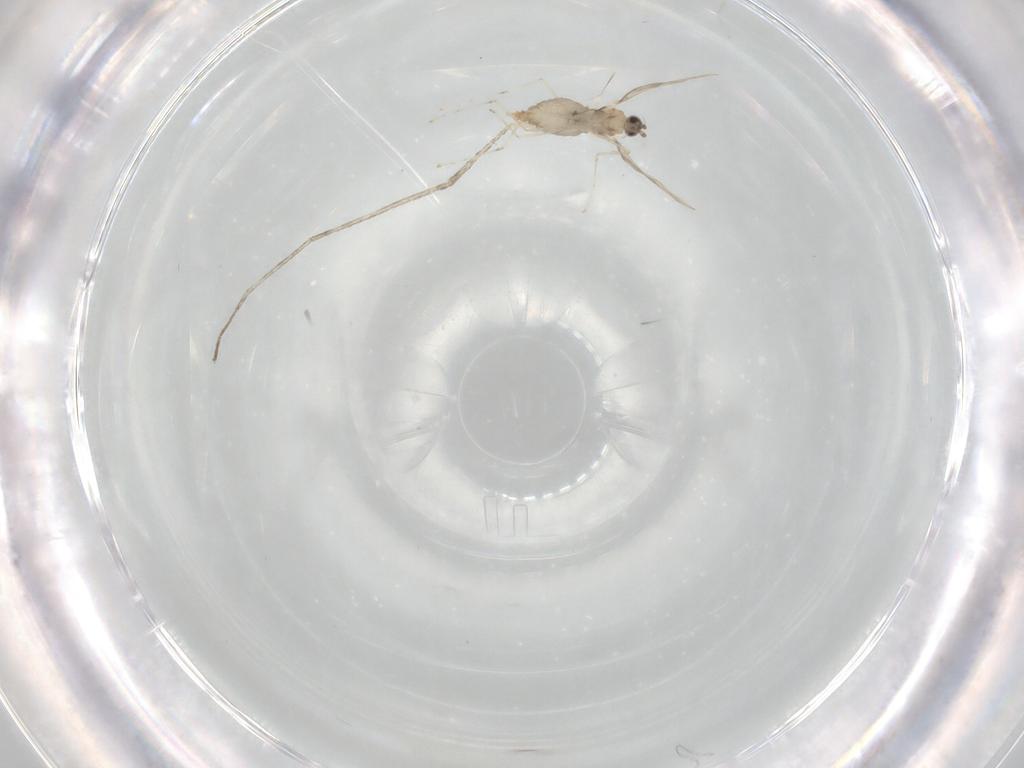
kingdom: Animalia
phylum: Arthropoda
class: Insecta
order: Diptera
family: Cecidomyiidae
